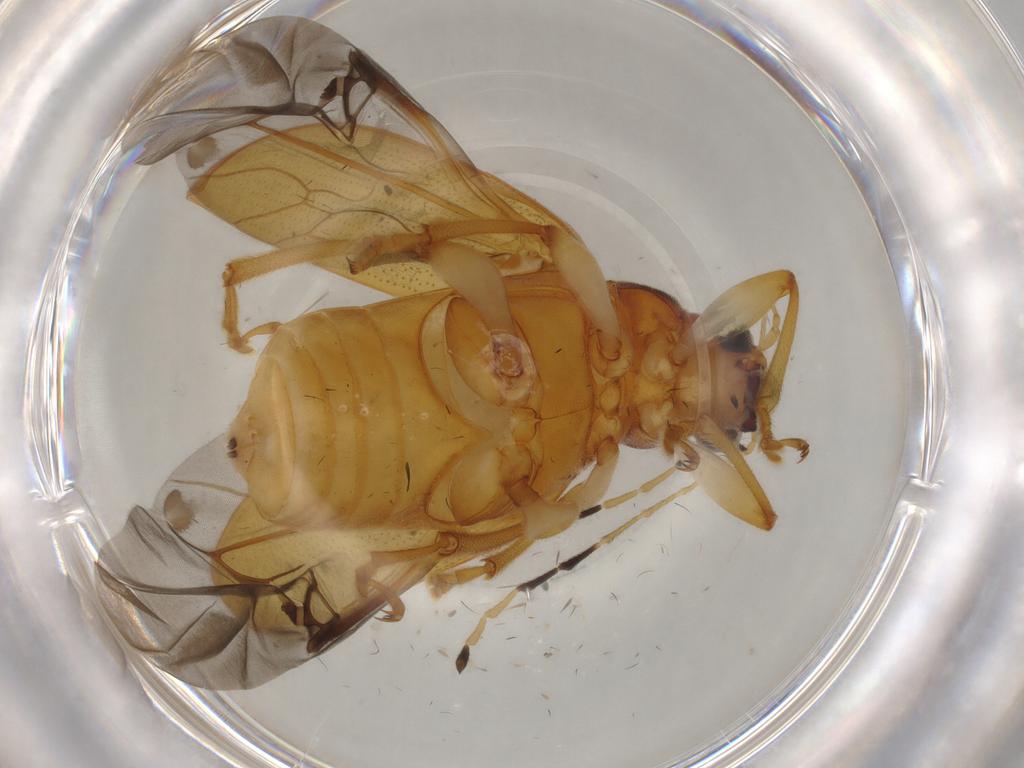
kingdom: Animalia
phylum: Arthropoda
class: Insecta
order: Coleoptera
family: Chrysomelidae
